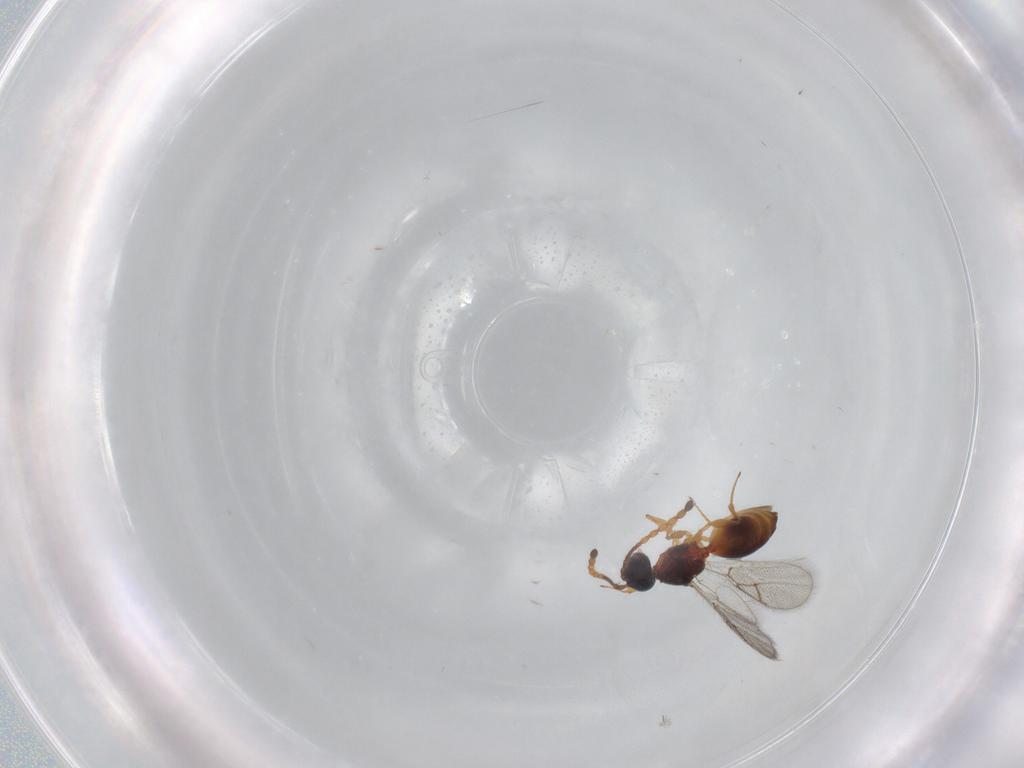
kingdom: Animalia
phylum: Arthropoda
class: Insecta
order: Hymenoptera
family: Figitidae
